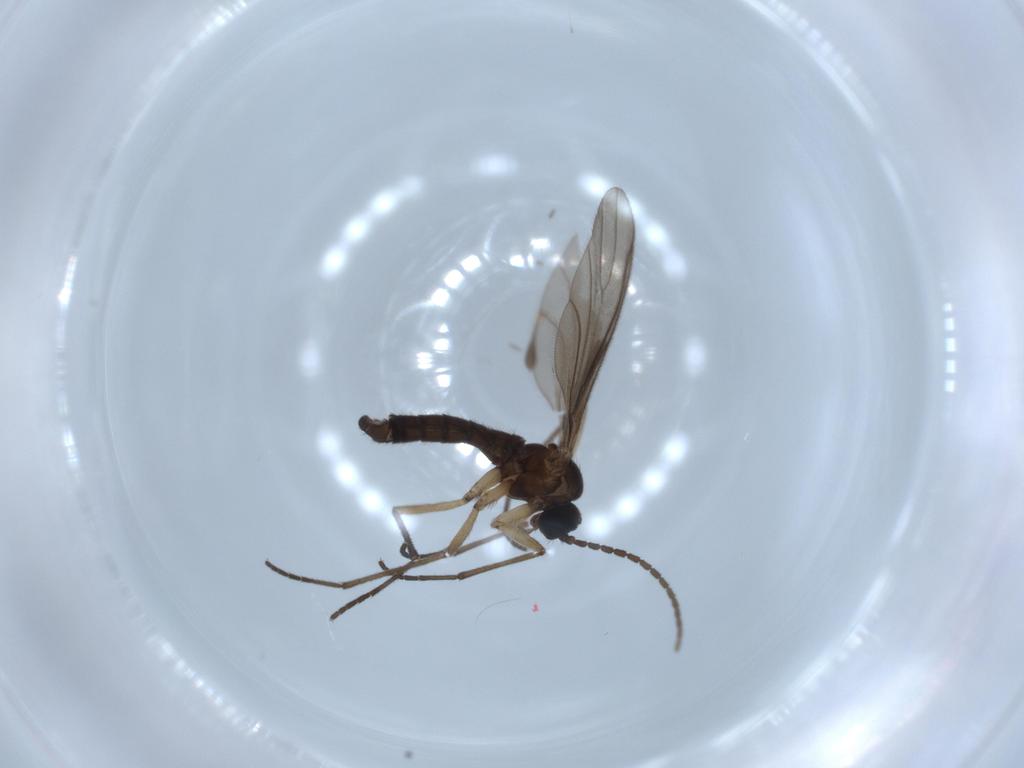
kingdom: Animalia
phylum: Arthropoda
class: Insecta
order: Diptera
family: Sciaridae
